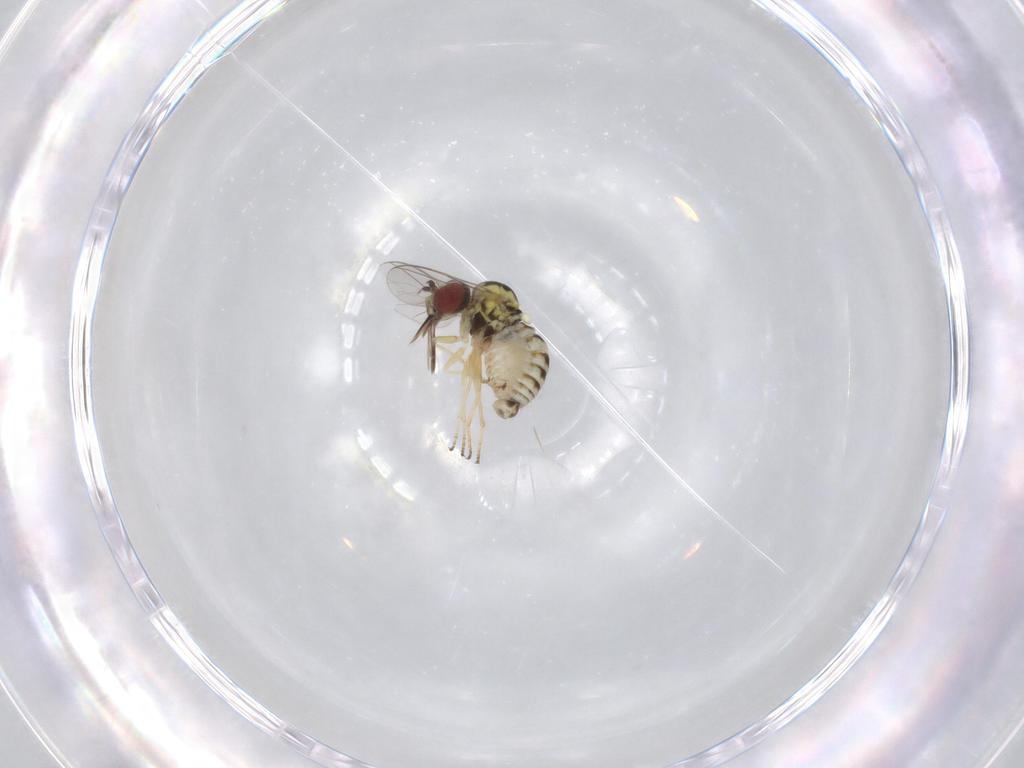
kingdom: Animalia
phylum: Arthropoda
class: Insecta
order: Diptera
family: Bombyliidae
